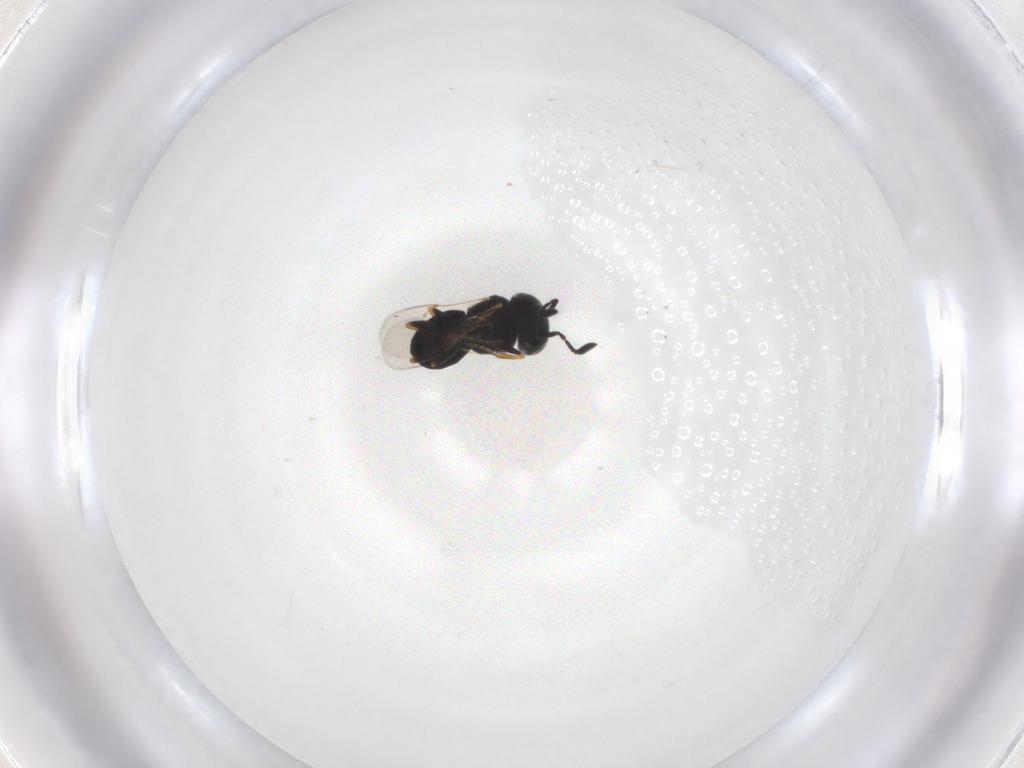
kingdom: Animalia
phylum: Arthropoda
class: Insecta
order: Hymenoptera
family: Scelionidae
